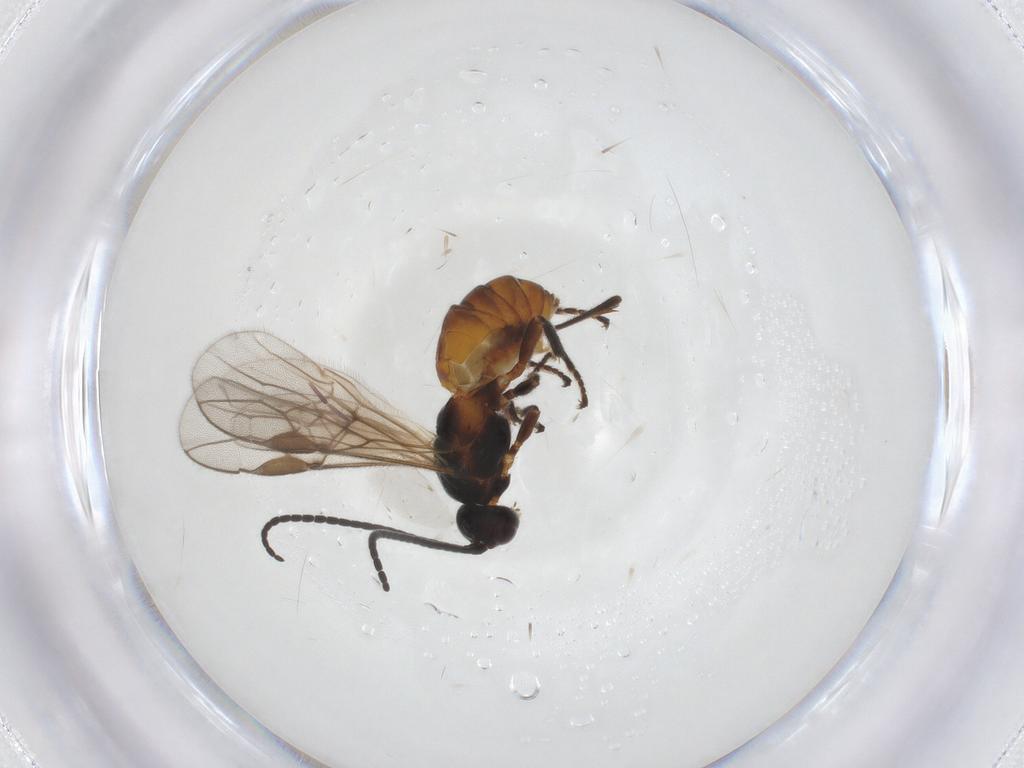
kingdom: Animalia
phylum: Arthropoda
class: Insecta
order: Hymenoptera
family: Braconidae
